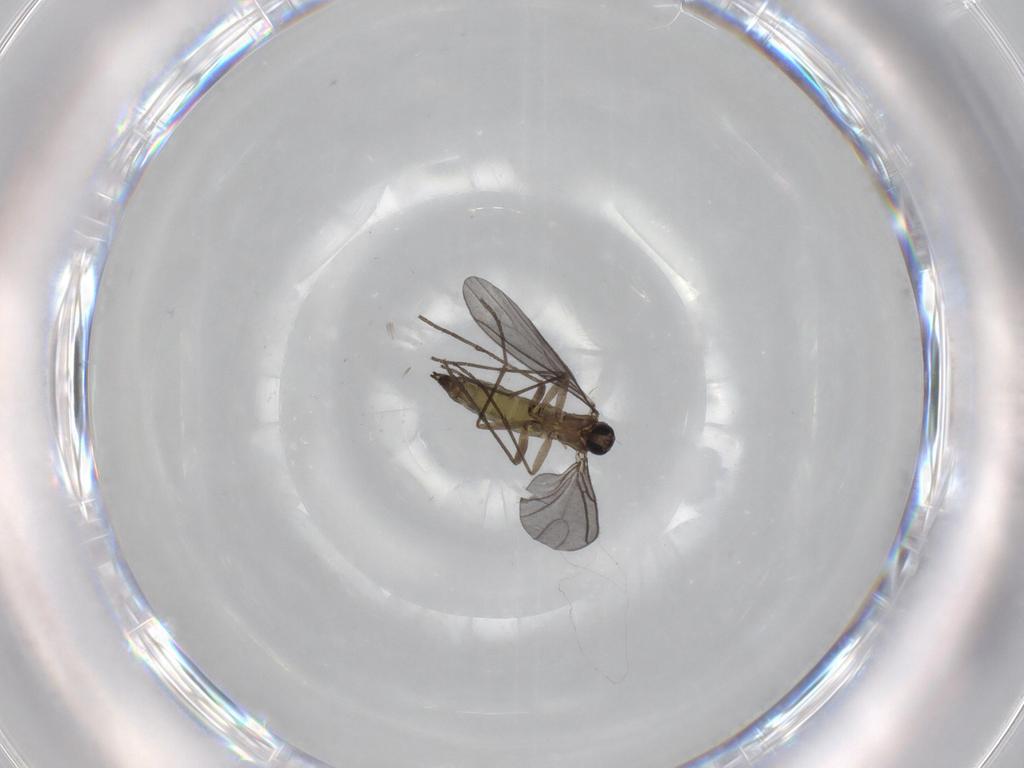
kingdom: Animalia
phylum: Arthropoda
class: Insecta
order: Diptera
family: Sciaridae
